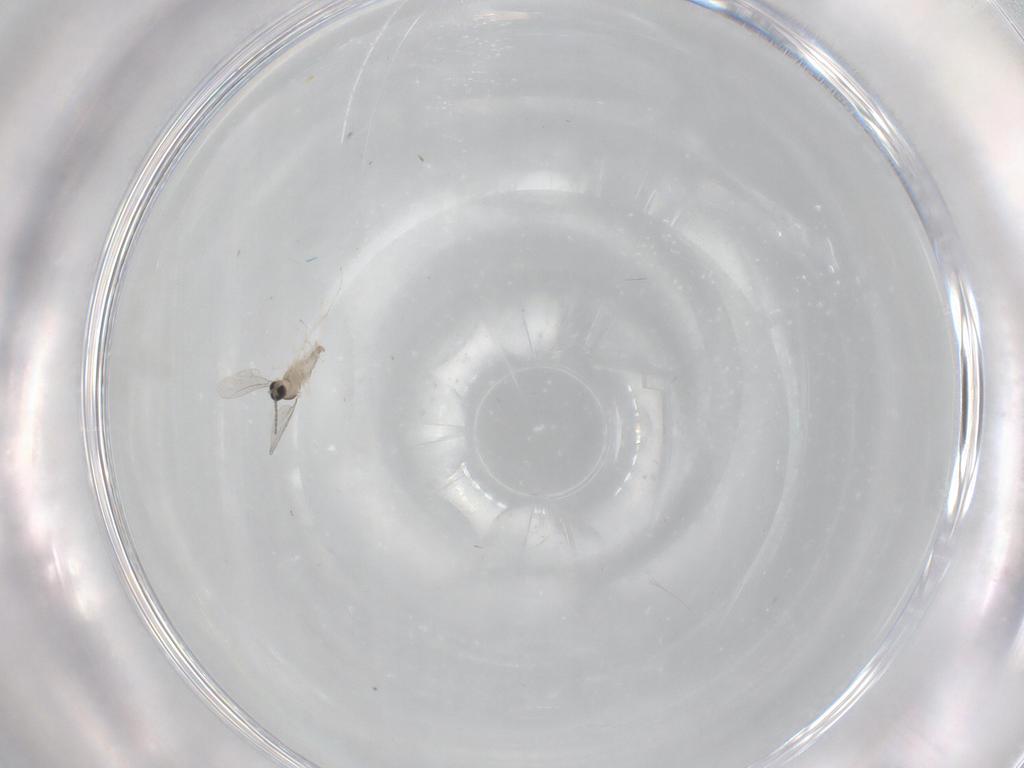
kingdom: Animalia
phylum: Arthropoda
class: Insecta
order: Diptera
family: Cecidomyiidae
